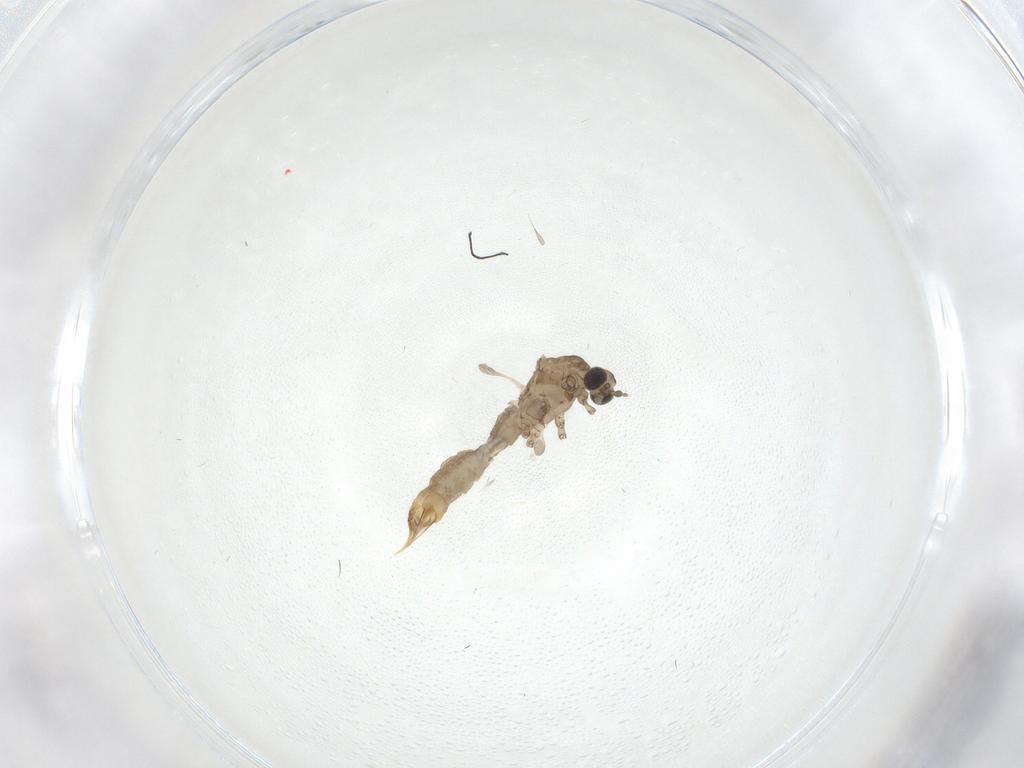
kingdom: Animalia
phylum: Arthropoda
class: Insecta
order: Diptera
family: Limoniidae
